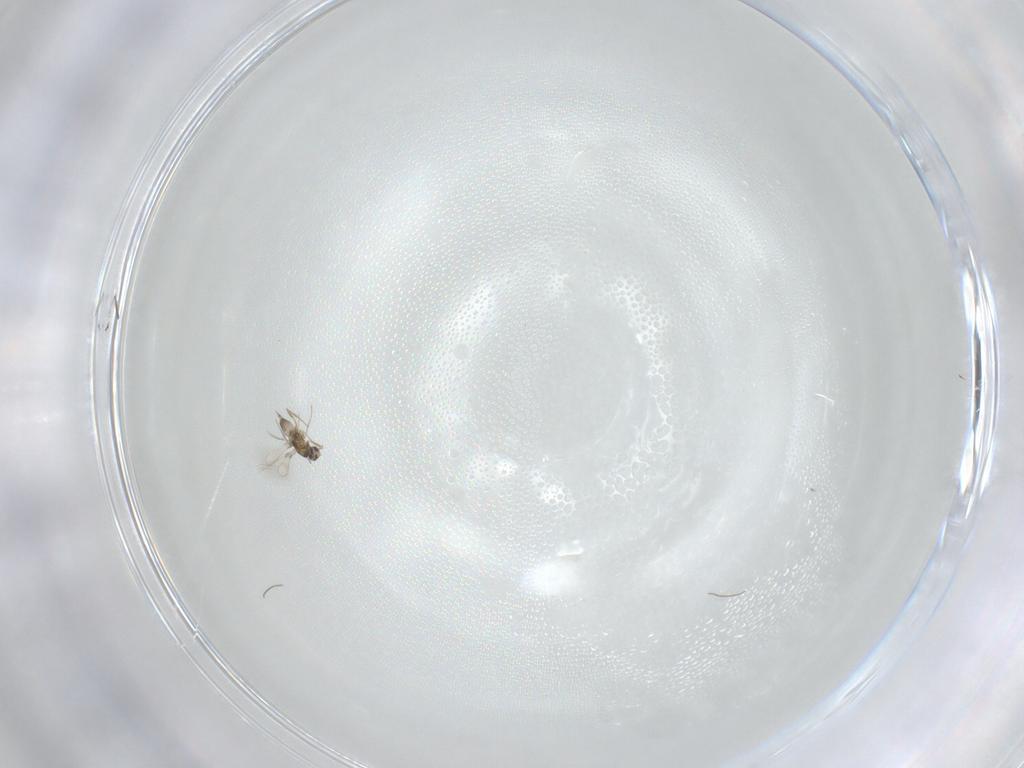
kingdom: Animalia
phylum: Arthropoda
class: Insecta
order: Hymenoptera
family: Mymaridae
